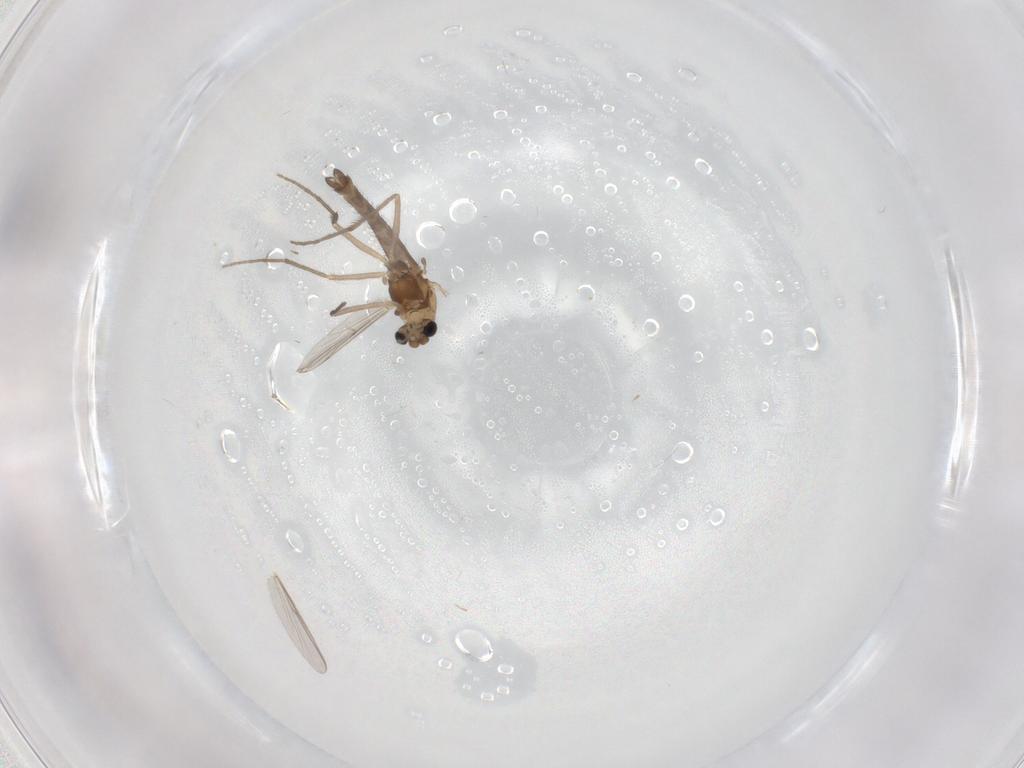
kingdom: Animalia
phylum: Arthropoda
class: Insecta
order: Diptera
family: Chironomidae
